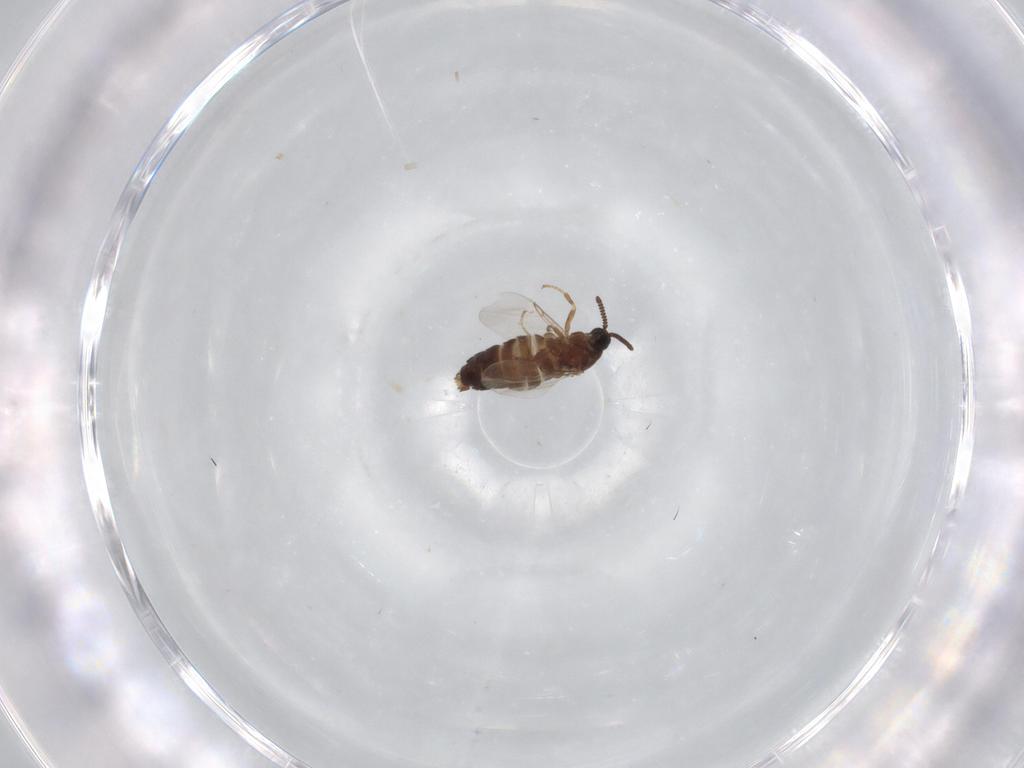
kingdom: Animalia
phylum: Arthropoda
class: Insecta
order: Diptera
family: Scatopsidae
